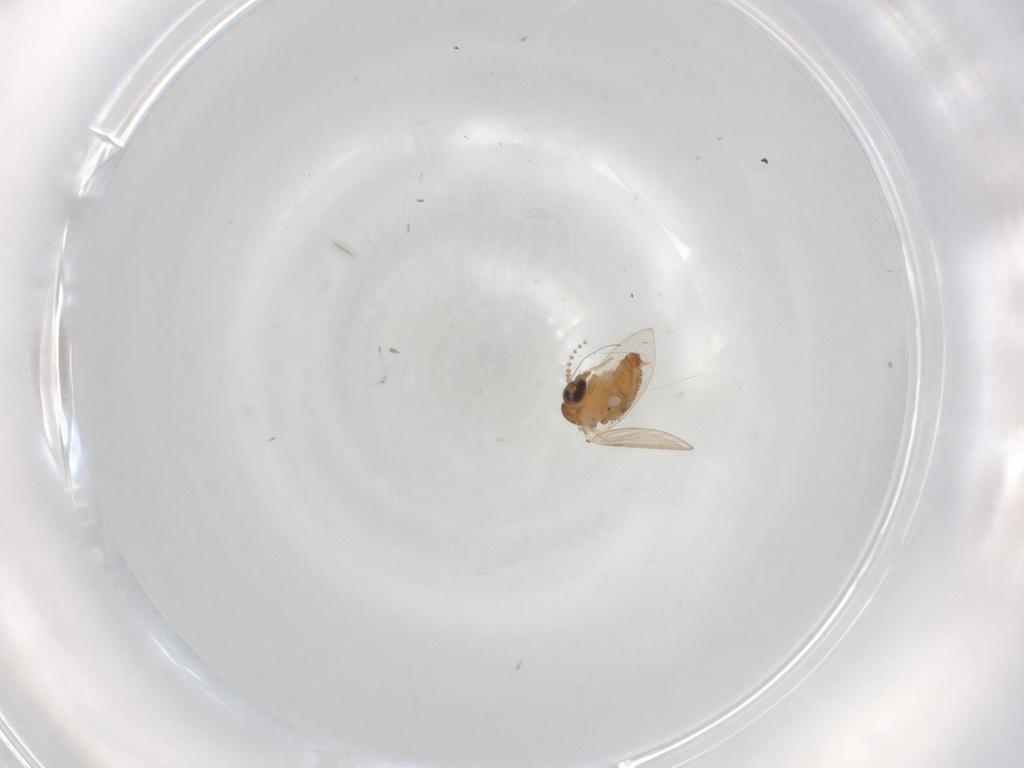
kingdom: Animalia
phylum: Arthropoda
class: Insecta
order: Diptera
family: Psychodidae
